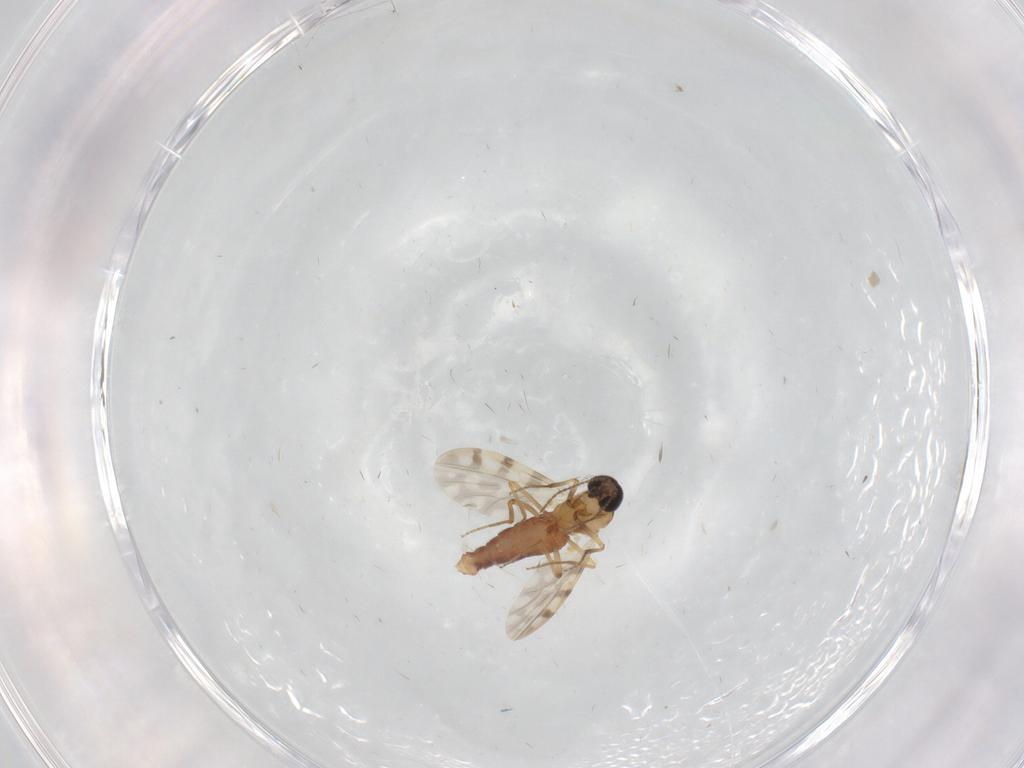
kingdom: Animalia
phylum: Arthropoda
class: Insecta
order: Diptera
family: Ceratopogonidae
